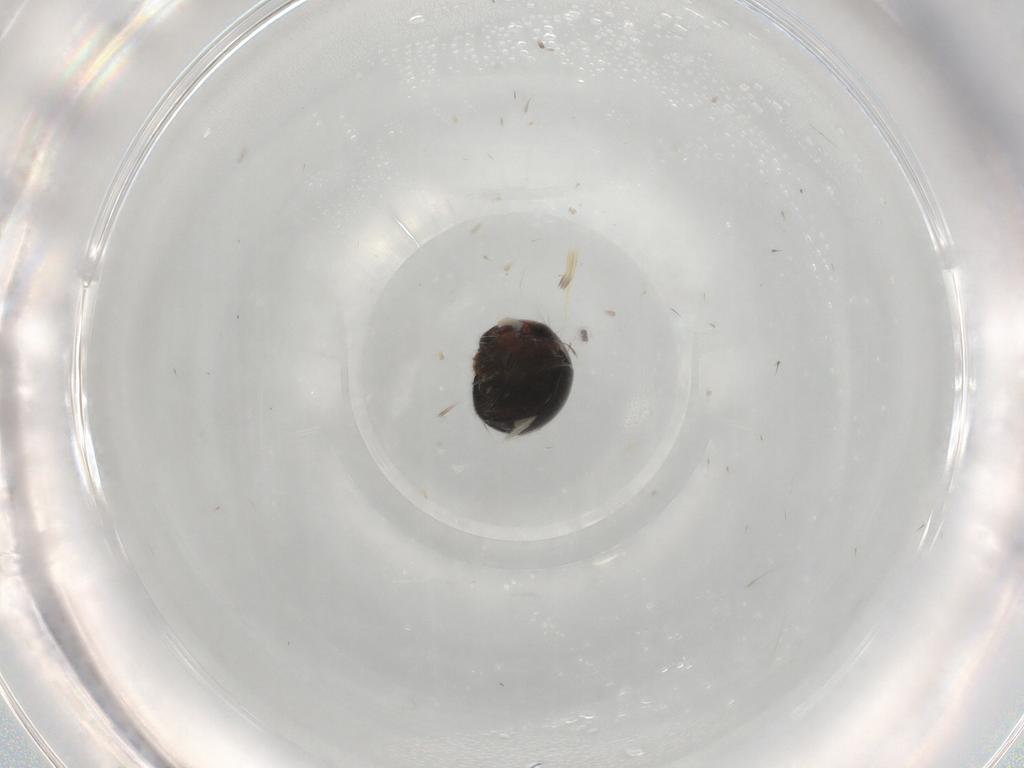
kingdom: Animalia
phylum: Arthropoda
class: Insecta
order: Coleoptera
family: Cybocephalidae
